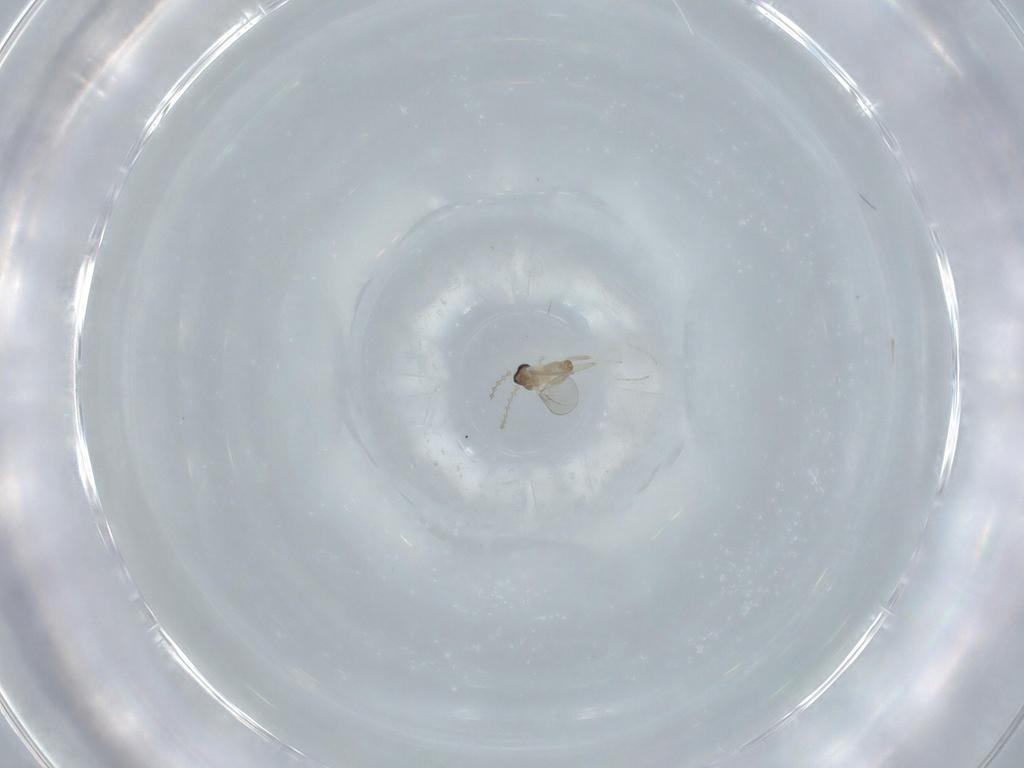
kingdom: Animalia
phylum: Arthropoda
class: Insecta
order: Diptera
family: Cecidomyiidae
